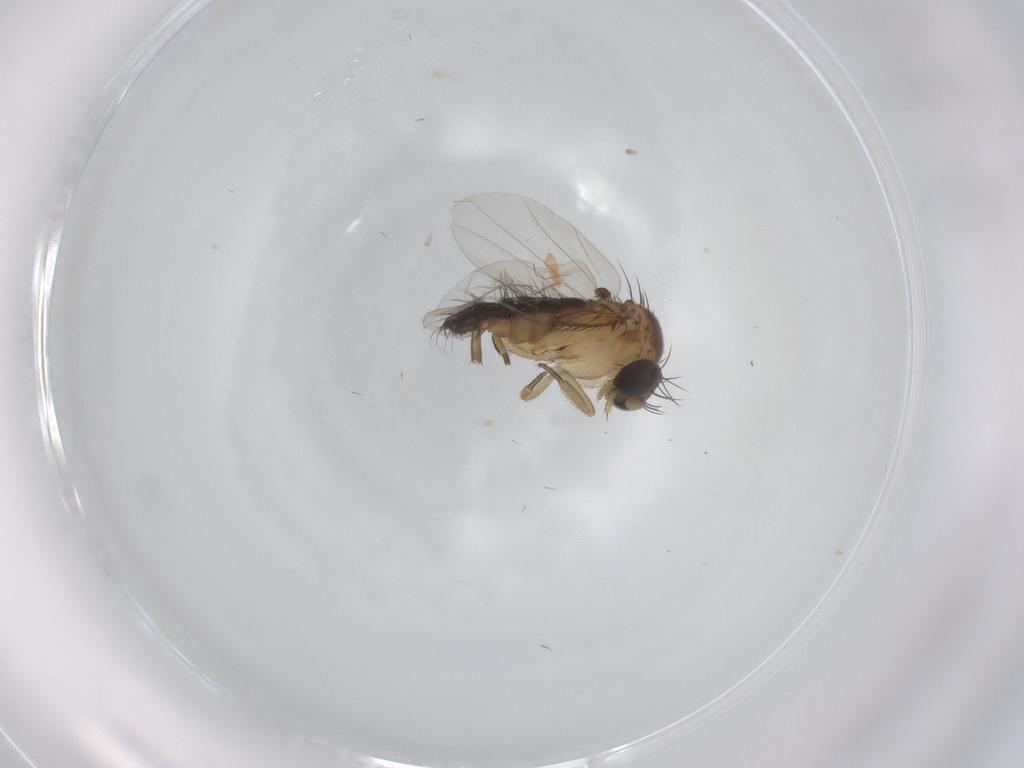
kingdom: Animalia
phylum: Arthropoda
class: Insecta
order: Diptera
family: Phoridae
